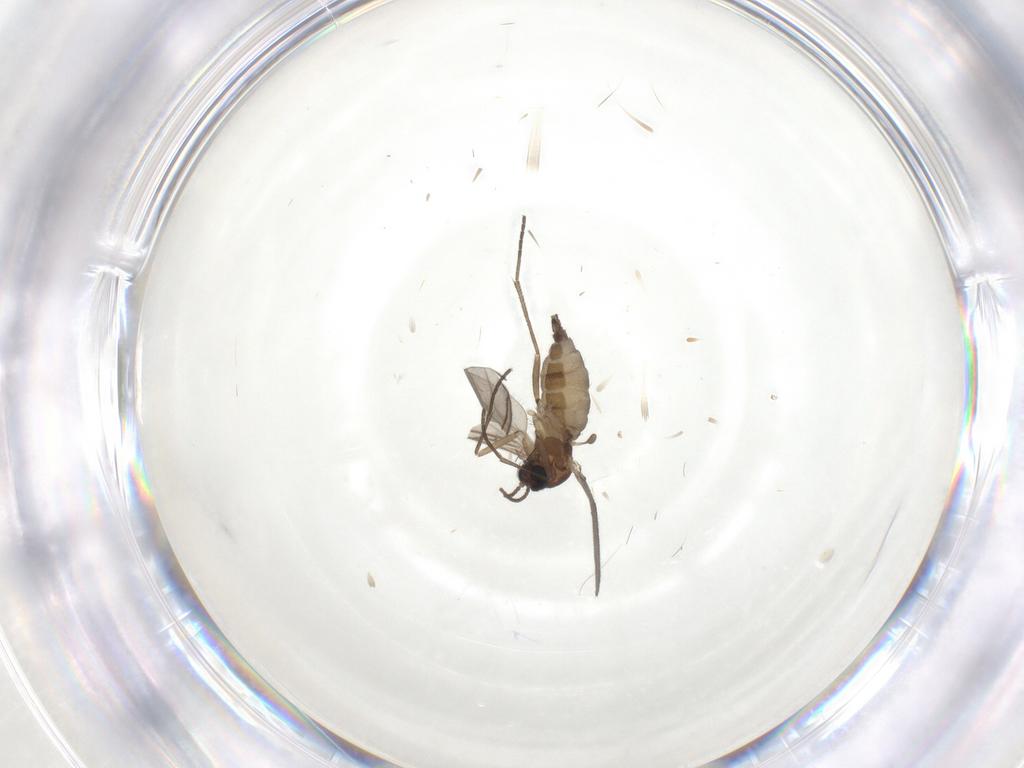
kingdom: Animalia
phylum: Arthropoda
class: Insecta
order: Diptera
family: Sciaridae
